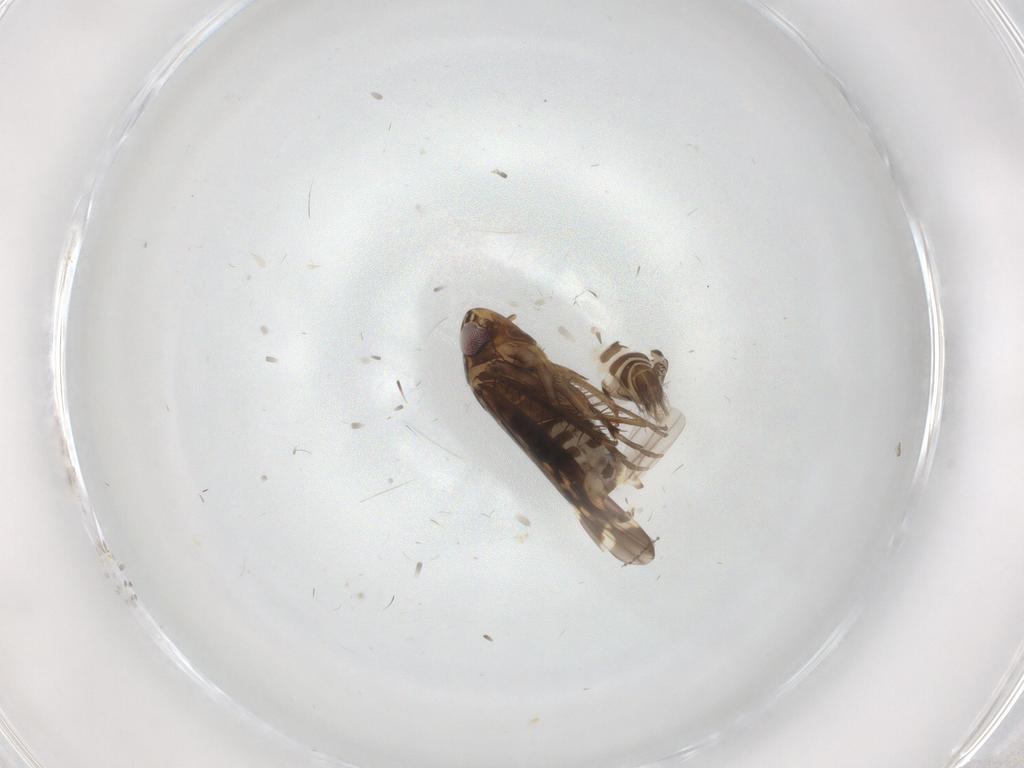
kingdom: Animalia
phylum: Arthropoda
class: Insecta
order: Hemiptera
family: Cicadellidae
